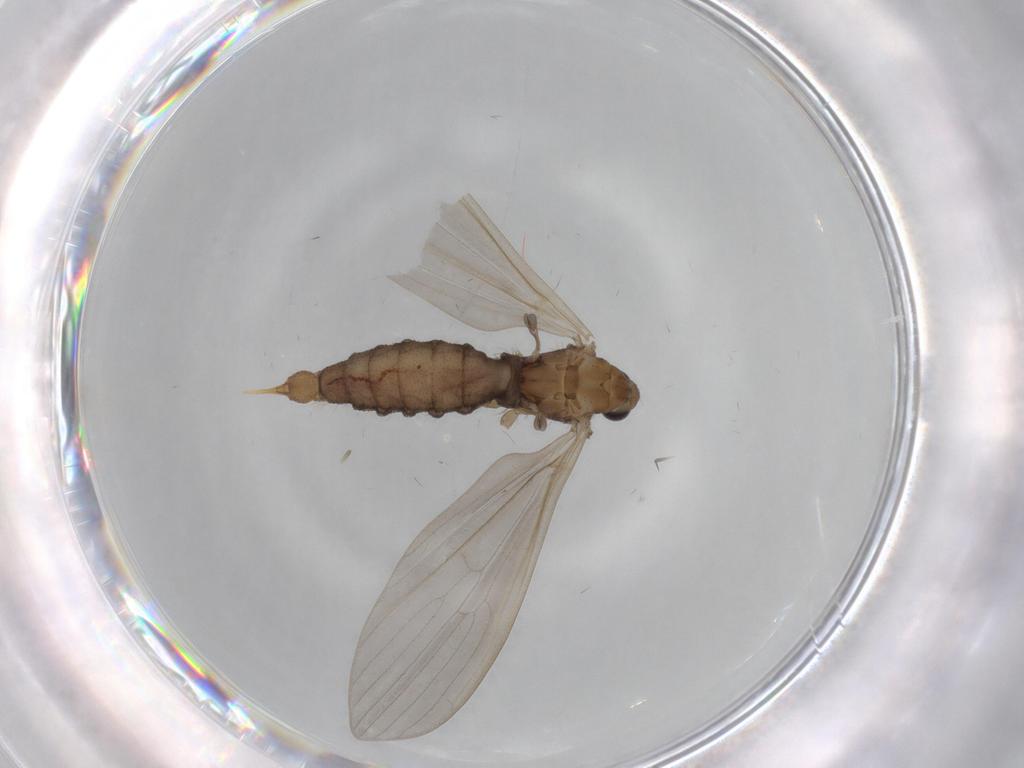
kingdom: Animalia
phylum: Arthropoda
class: Insecta
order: Diptera
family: Limoniidae
